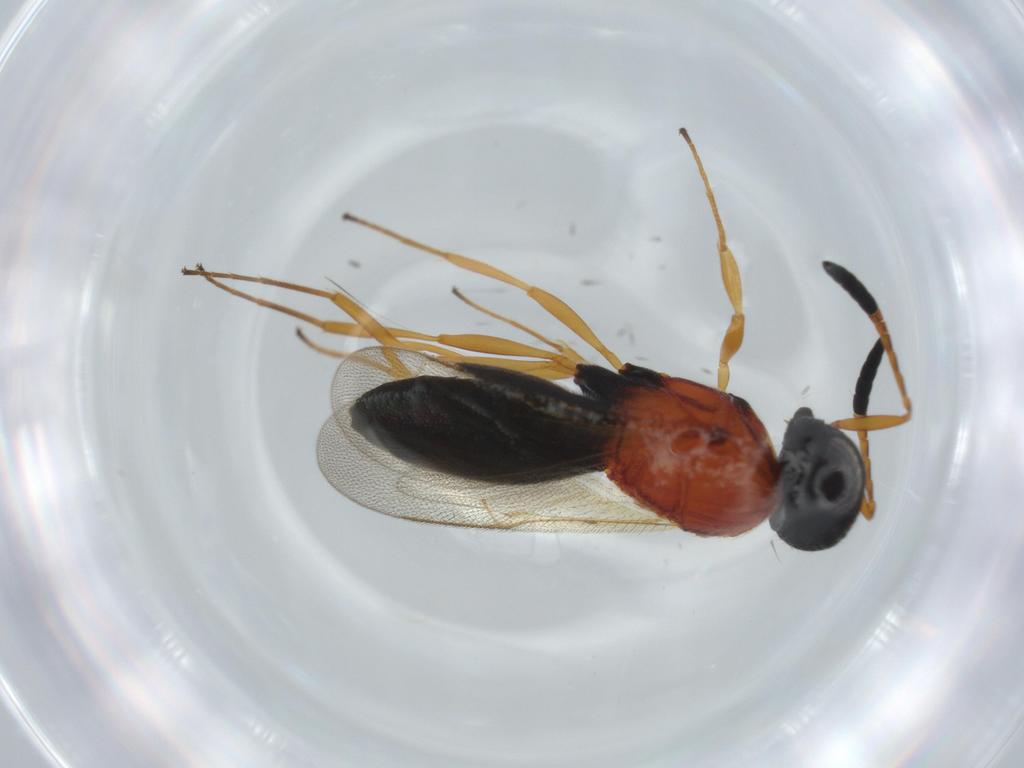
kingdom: Animalia
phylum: Arthropoda
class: Insecta
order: Hymenoptera
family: Scelionidae
